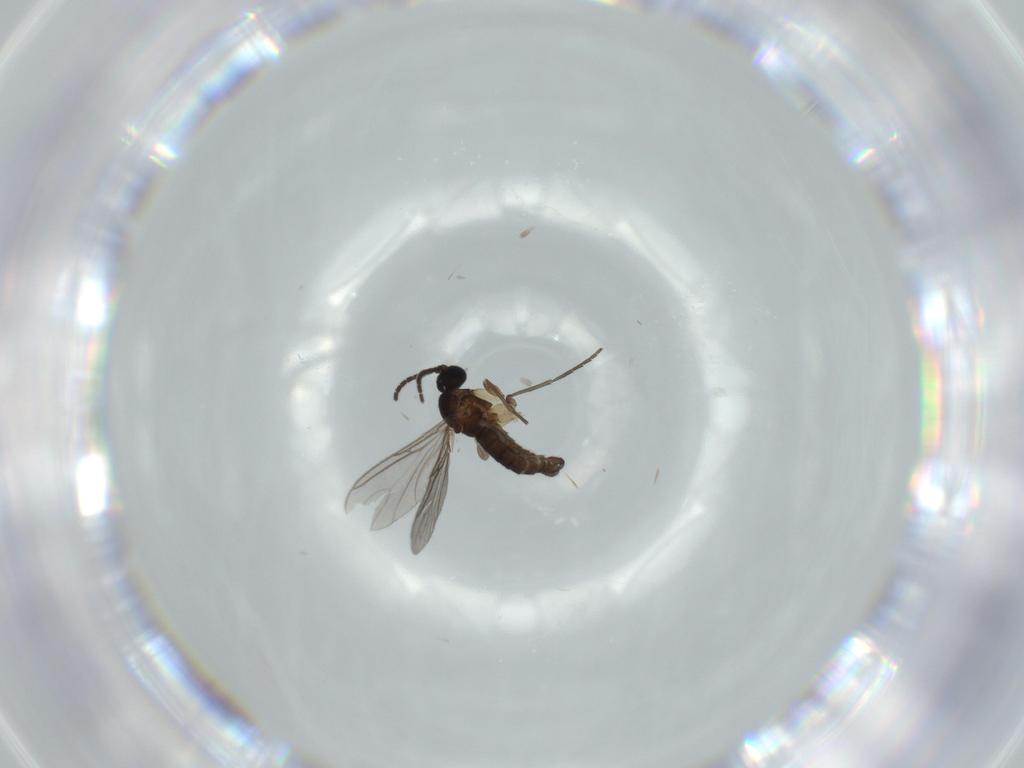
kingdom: Animalia
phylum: Arthropoda
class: Insecta
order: Diptera
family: Sciaridae
